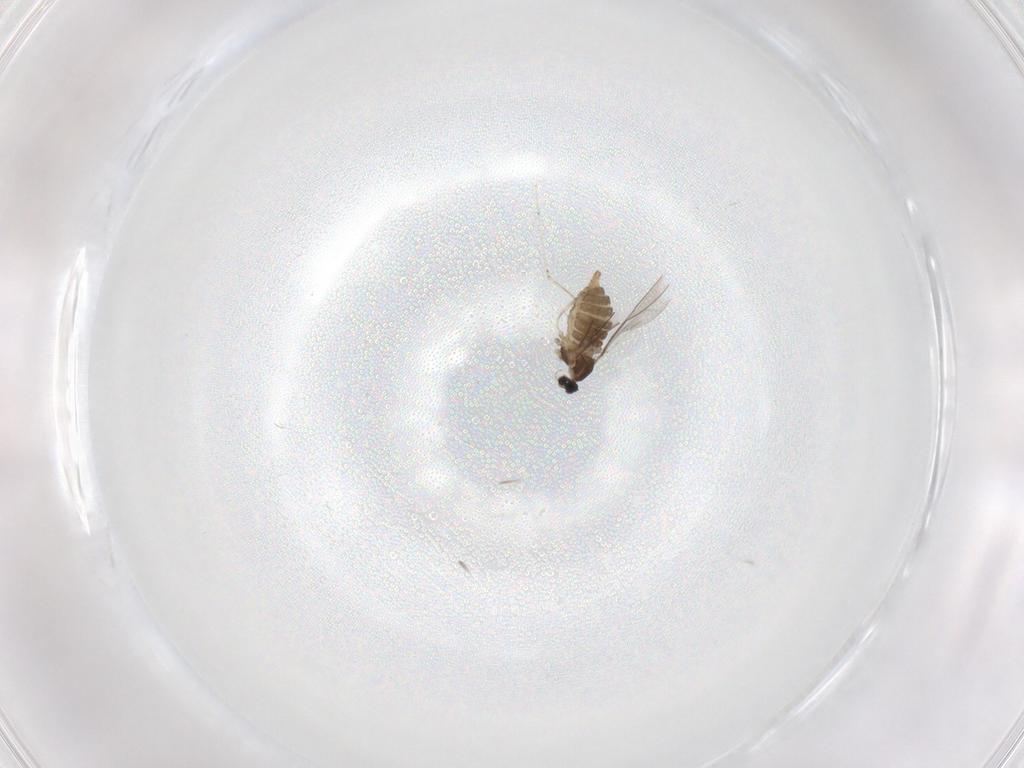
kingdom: Animalia
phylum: Arthropoda
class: Insecta
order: Diptera
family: Cecidomyiidae
